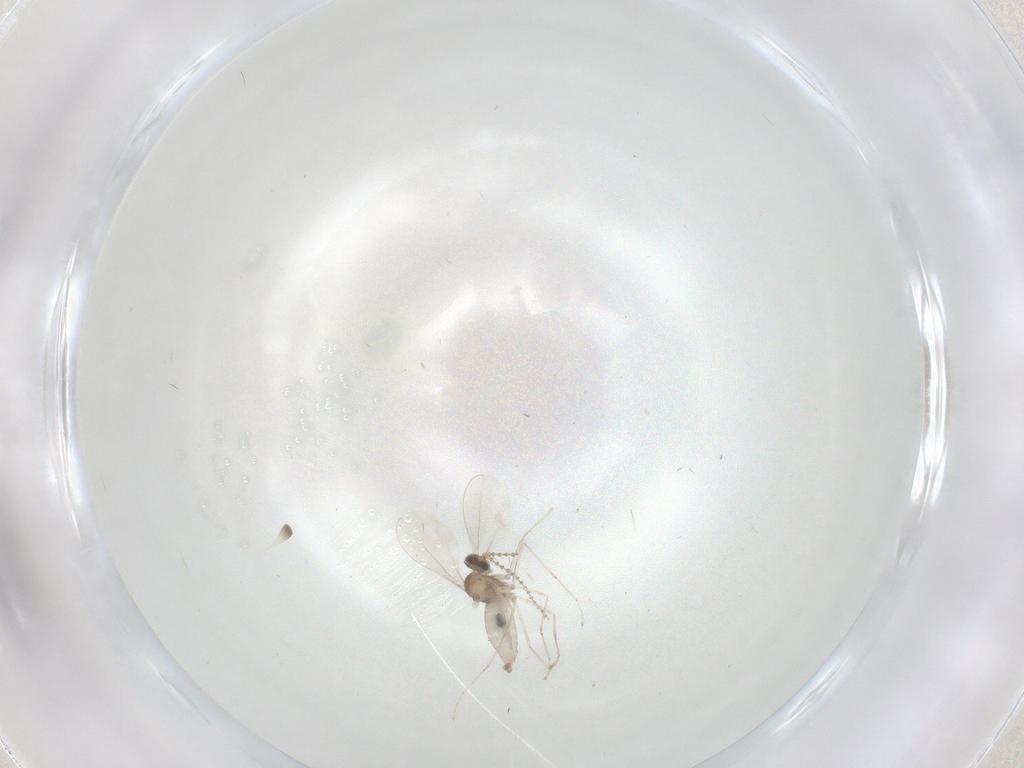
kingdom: Animalia
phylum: Arthropoda
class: Insecta
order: Diptera
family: Cecidomyiidae
